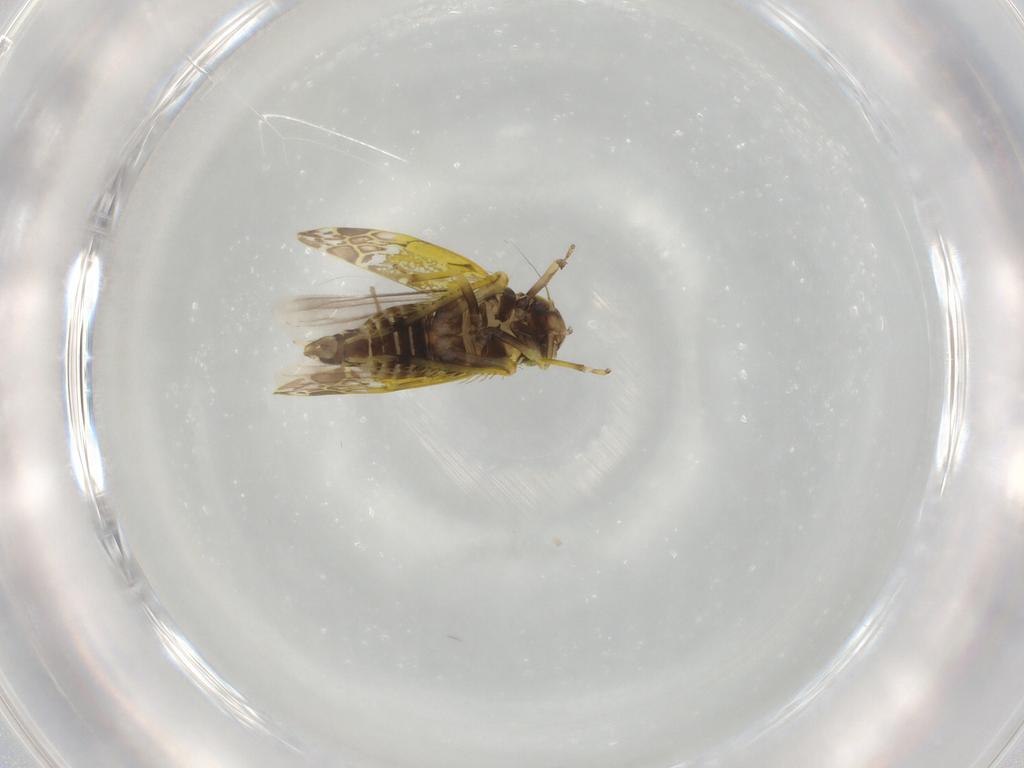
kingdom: Animalia
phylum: Arthropoda
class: Insecta
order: Hemiptera
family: Cicadellidae
